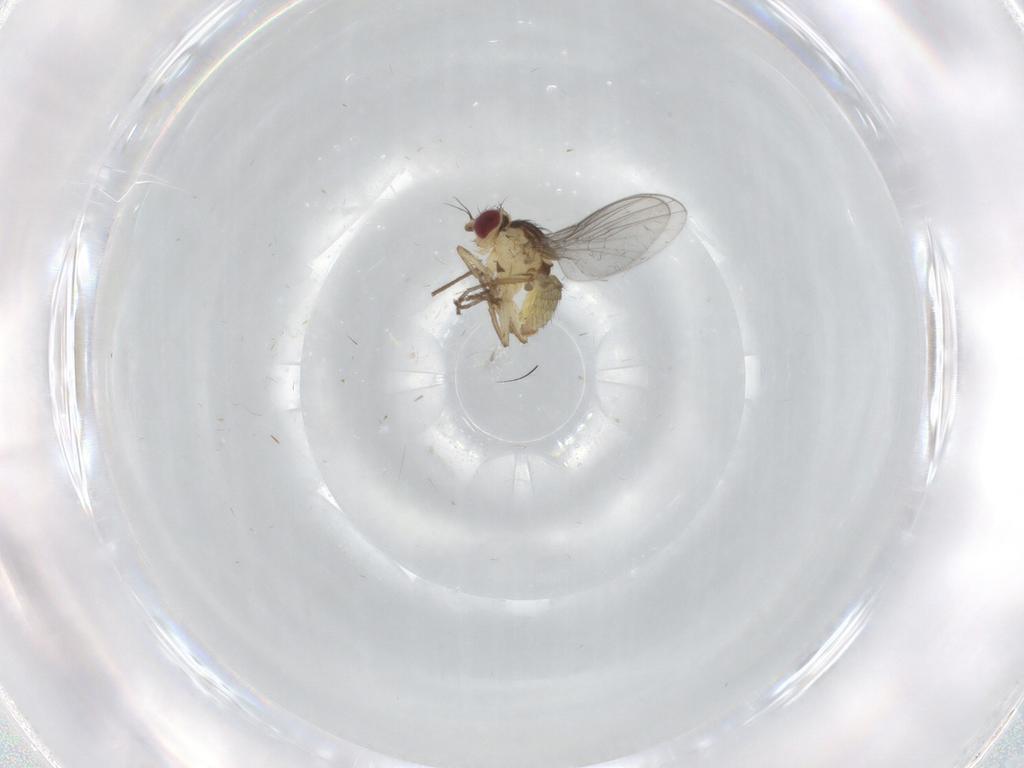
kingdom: Animalia
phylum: Arthropoda
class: Insecta
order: Diptera
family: Agromyzidae
